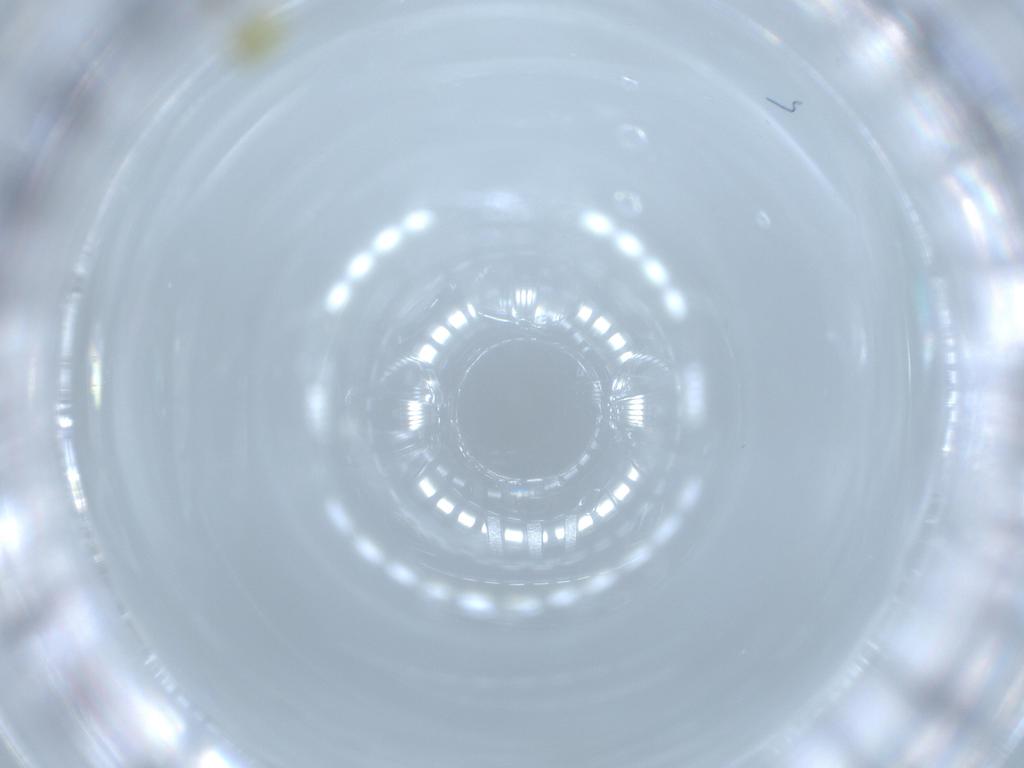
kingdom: Animalia
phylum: Arthropoda
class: Insecta
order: Hemiptera
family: Aleyrodidae
